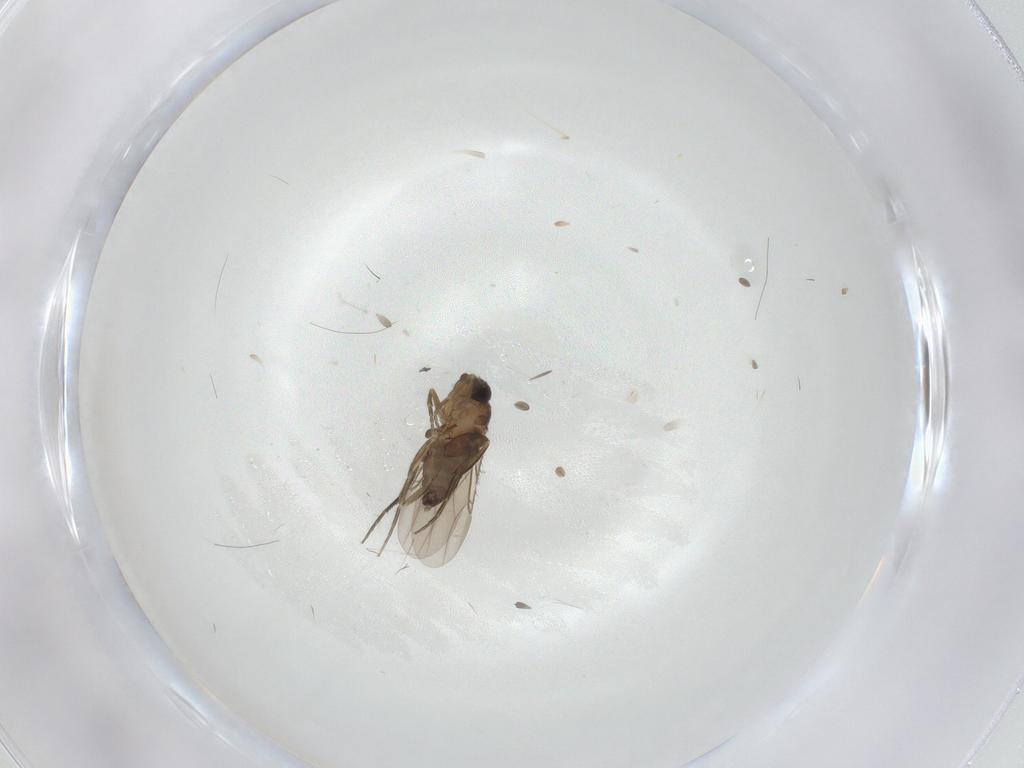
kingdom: Animalia
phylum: Arthropoda
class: Insecta
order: Diptera
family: Phoridae
